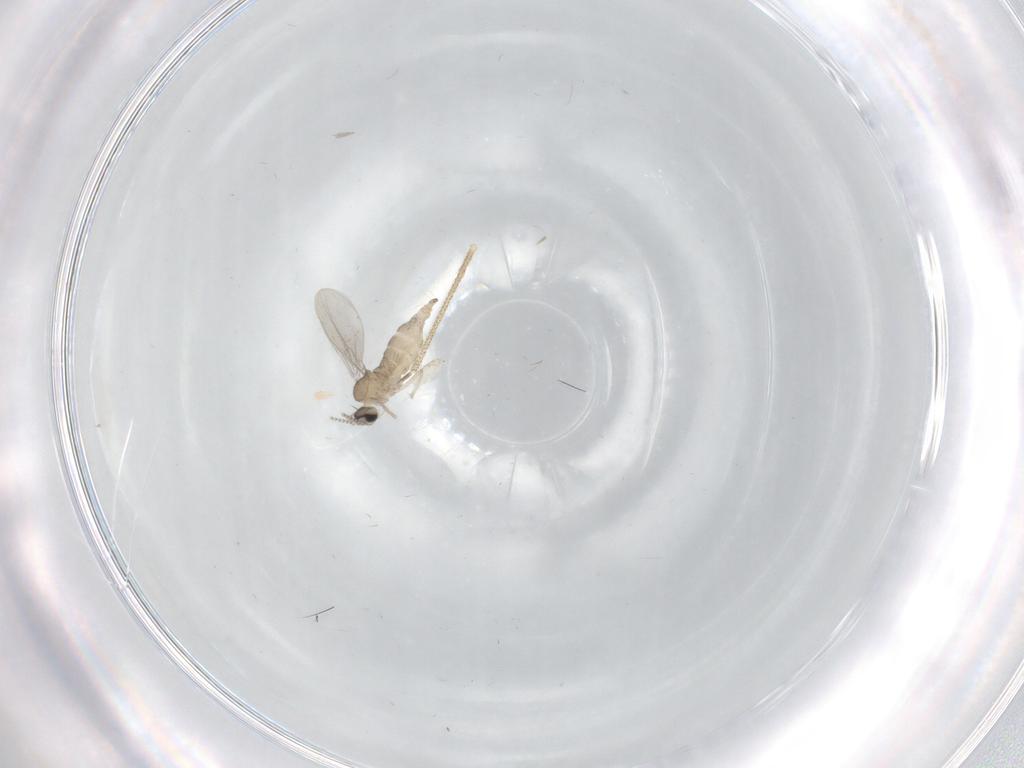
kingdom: Animalia
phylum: Arthropoda
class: Insecta
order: Diptera
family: Cecidomyiidae
